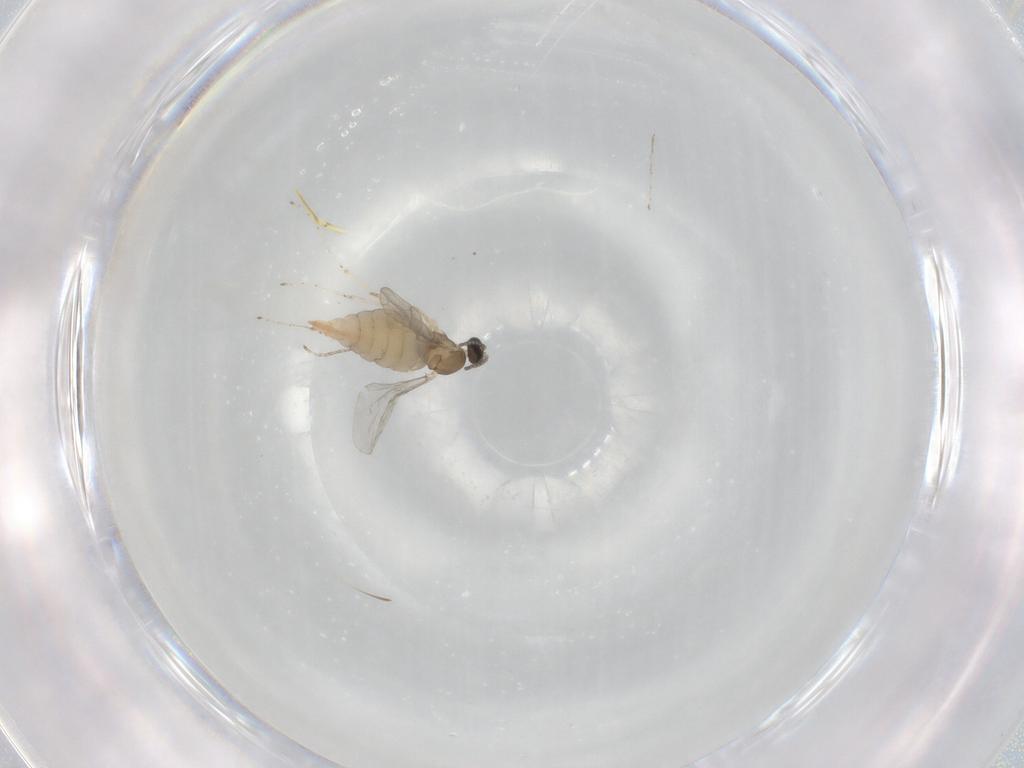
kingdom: Animalia
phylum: Arthropoda
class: Insecta
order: Diptera
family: Cecidomyiidae
